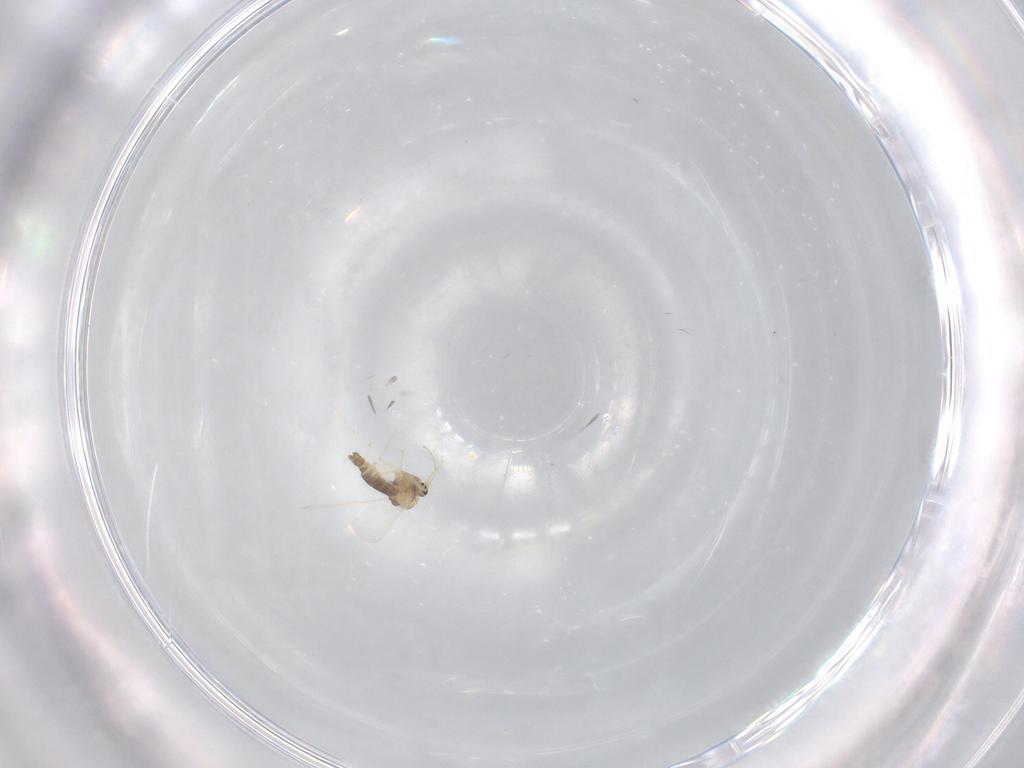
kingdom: Animalia
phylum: Arthropoda
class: Insecta
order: Diptera
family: Chironomidae
